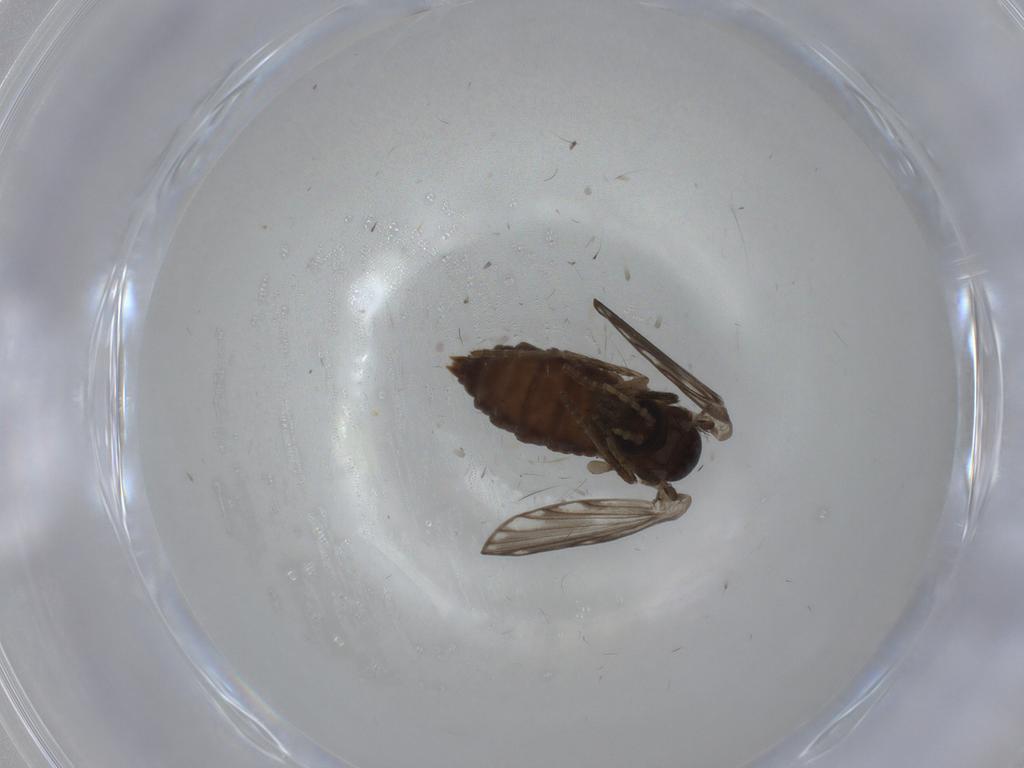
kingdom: Animalia
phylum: Arthropoda
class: Insecta
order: Diptera
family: Psychodidae
